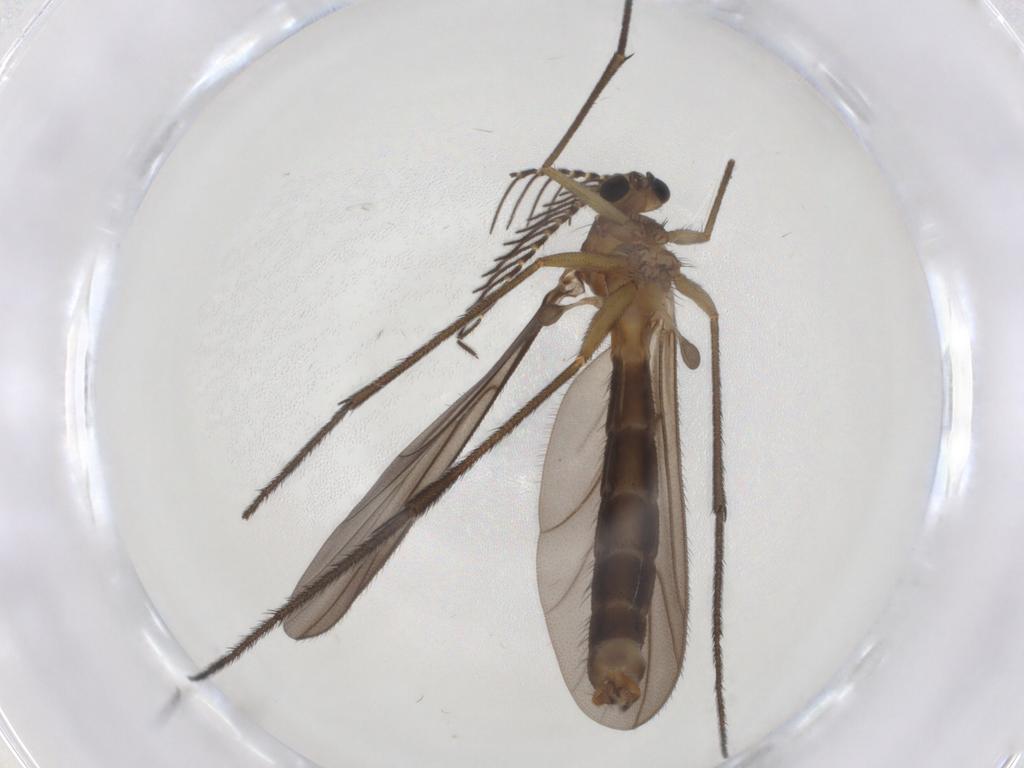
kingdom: Animalia
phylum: Arthropoda
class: Insecta
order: Diptera
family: Ditomyiidae
